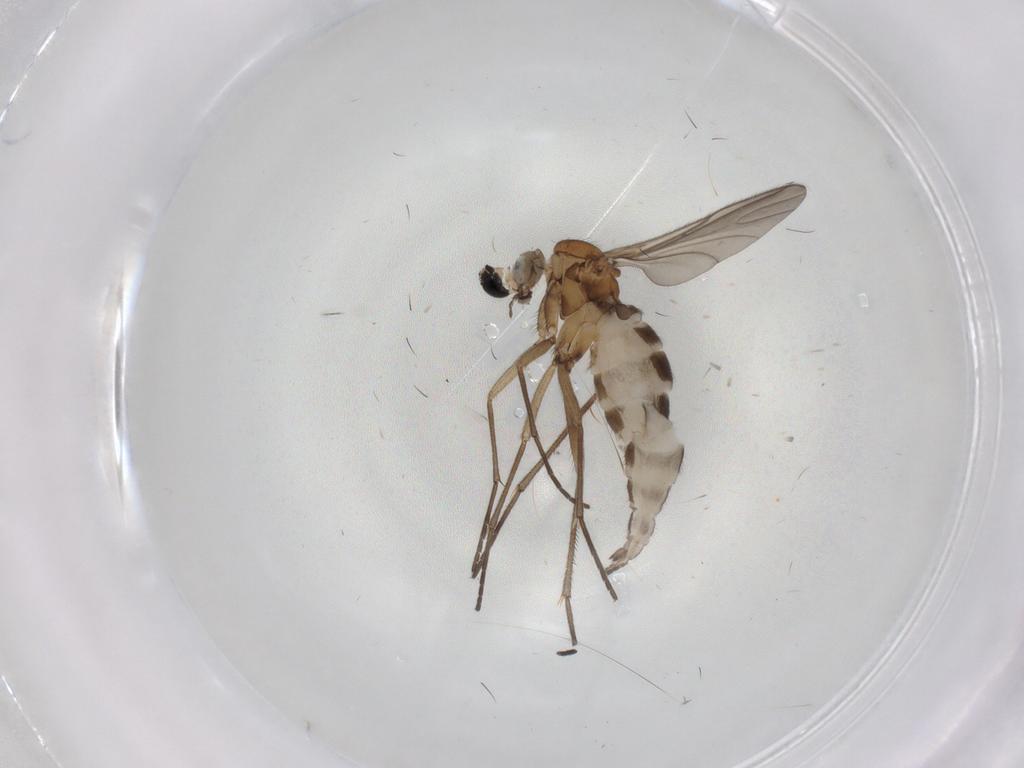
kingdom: Animalia
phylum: Arthropoda
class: Insecta
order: Diptera
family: Sciaridae
